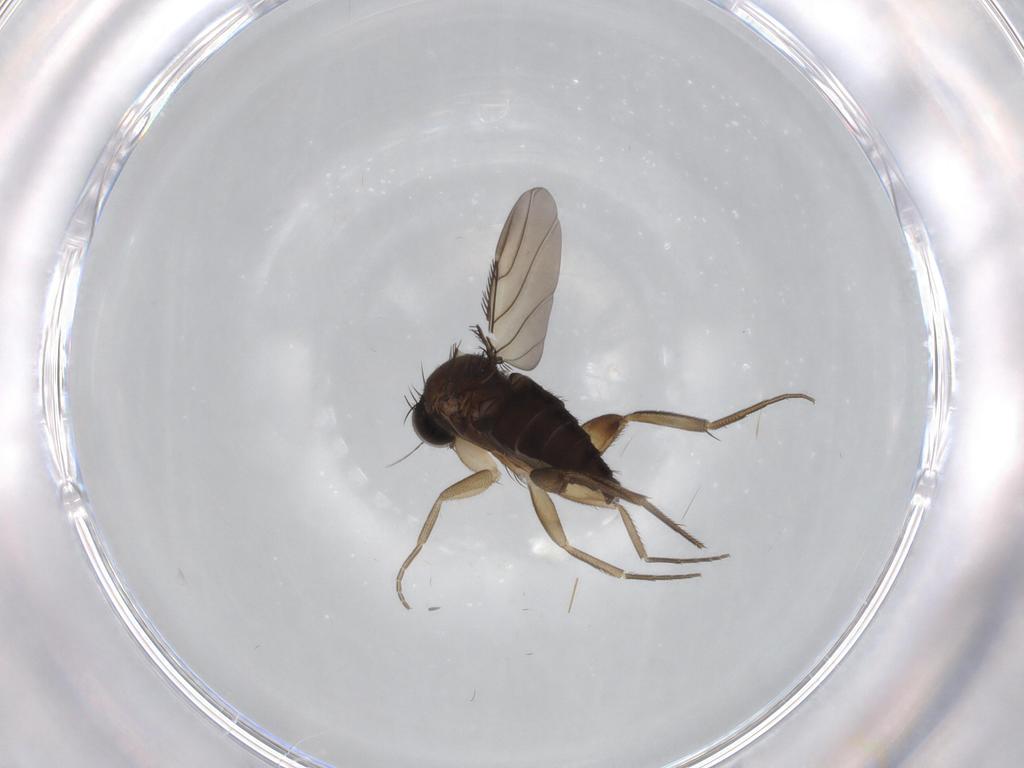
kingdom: Animalia
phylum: Arthropoda
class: Insecta
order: Diptera
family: Phoridae
